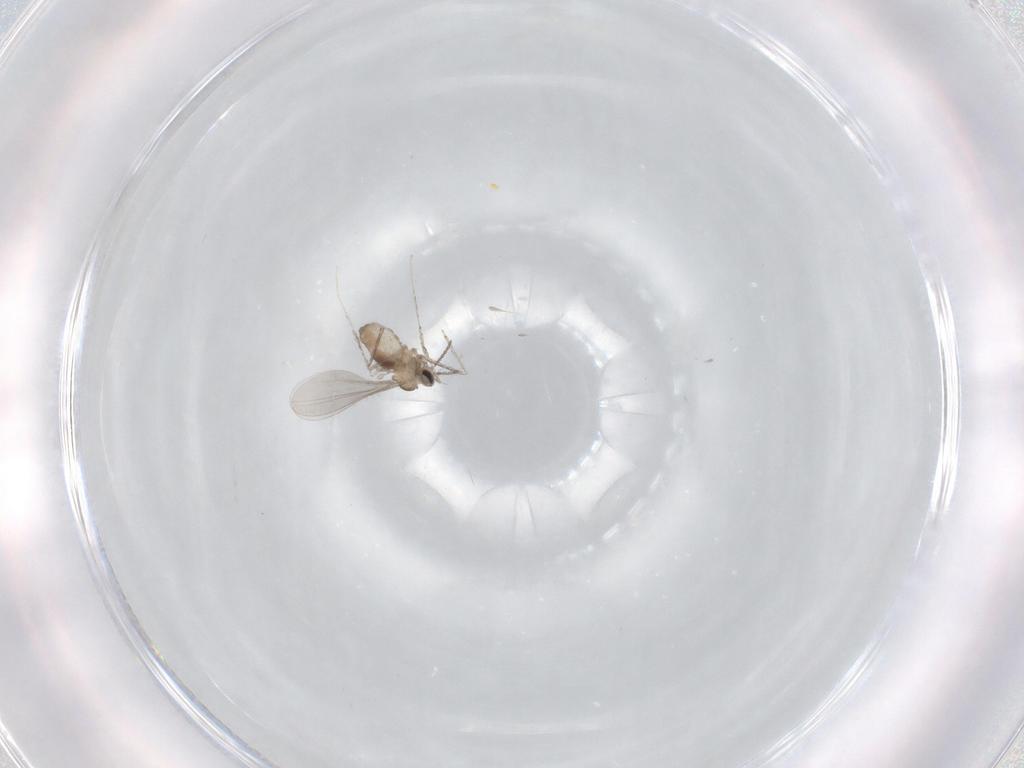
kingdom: Animalia
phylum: Arthropoda
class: Insecta
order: Diptera
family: Cecidomyiidae
